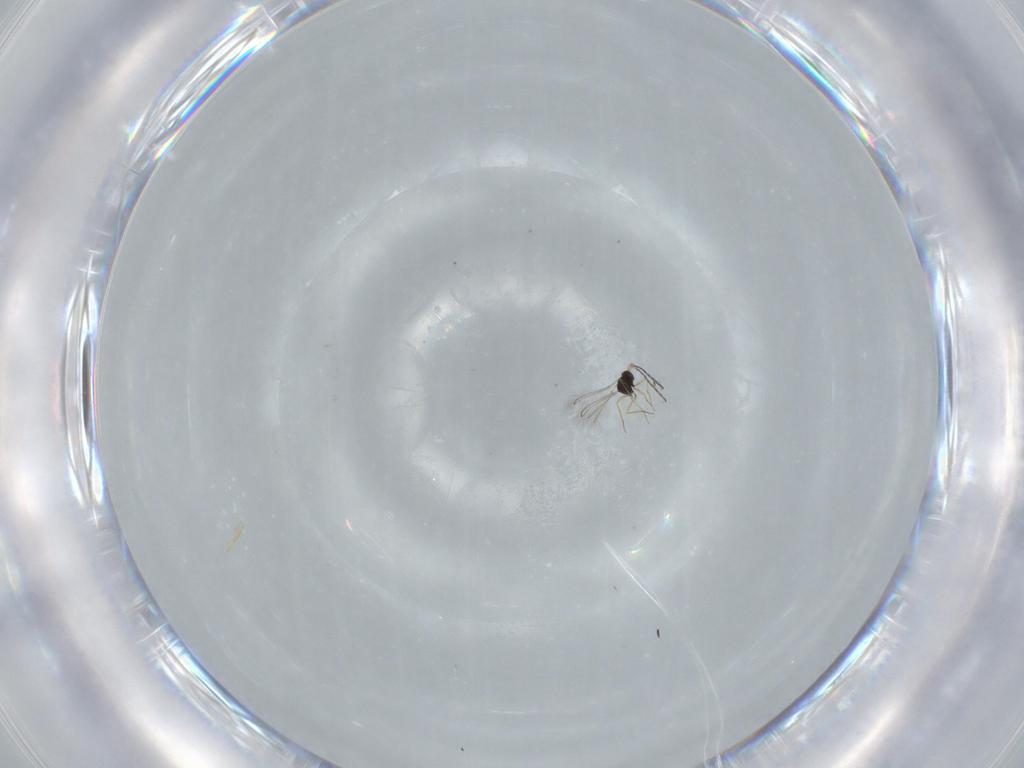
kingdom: Animalia
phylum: Arthropoda
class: Insecta
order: Hymenoptera
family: Mymaridae
